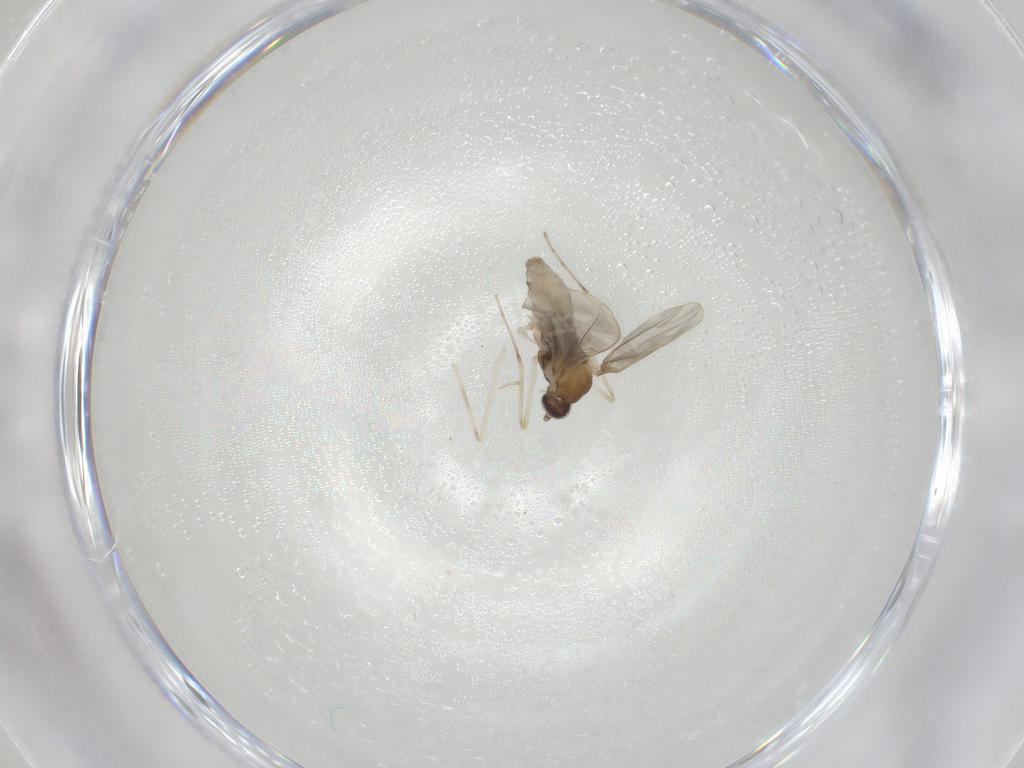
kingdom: Animalia
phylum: Arthropoda
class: Insecta
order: Diptera
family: Cecidomyiidae
